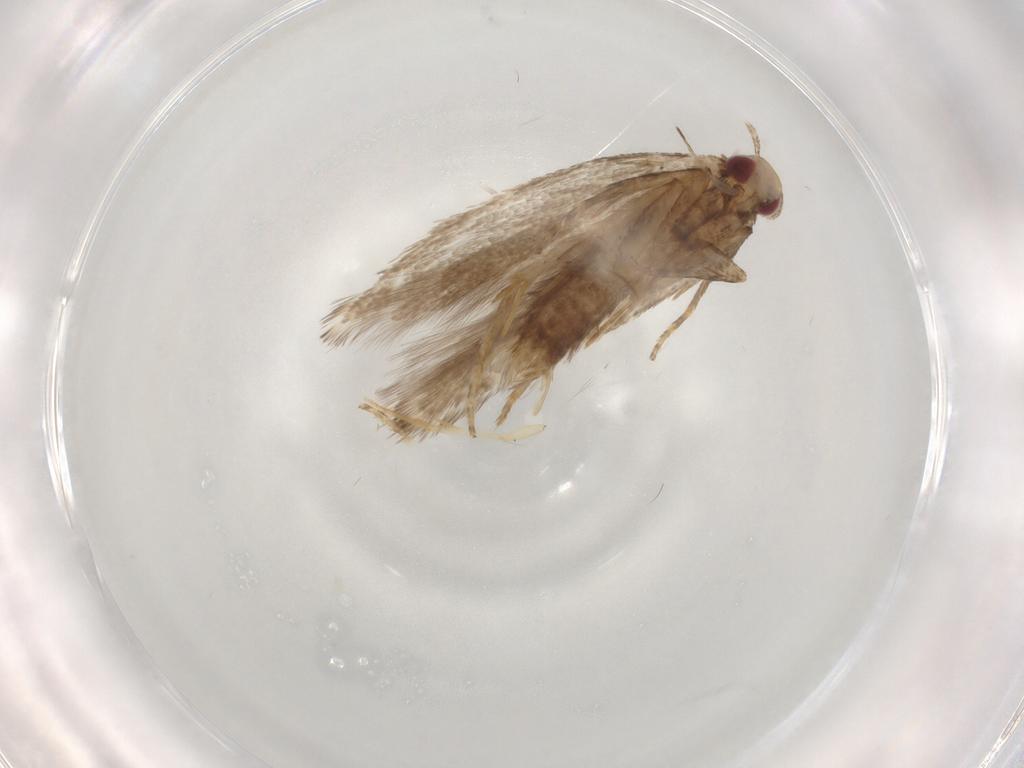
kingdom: Animalia
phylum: Arthropoda
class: Insecta
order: Lepidoptera
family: Gelechiidae
